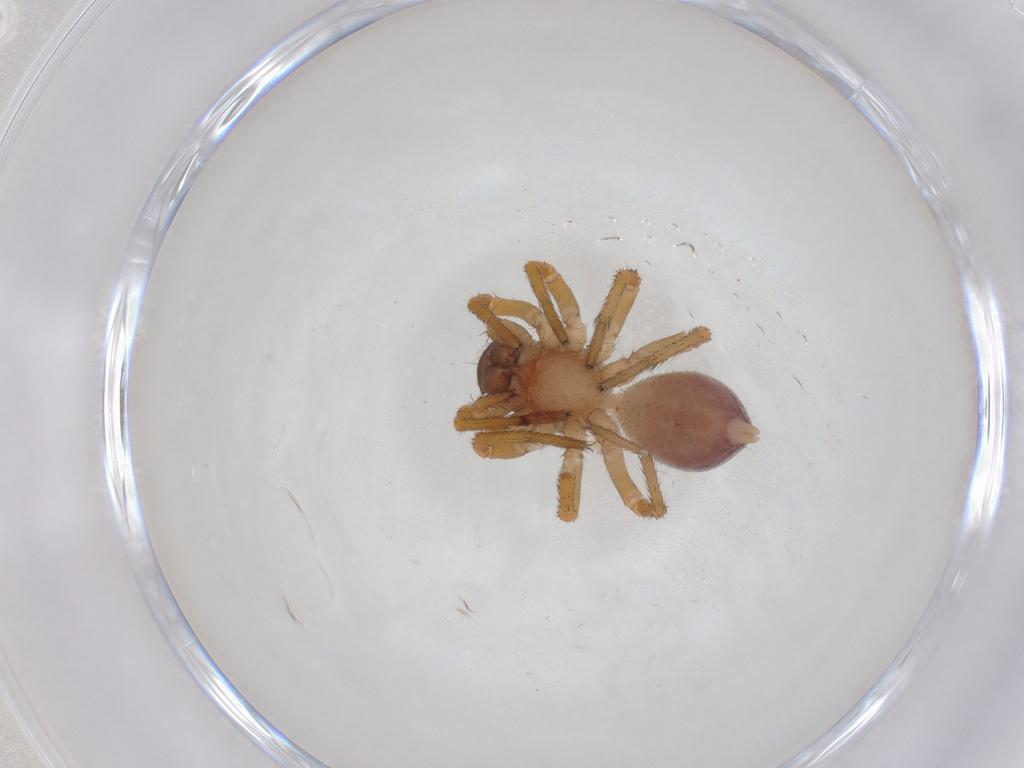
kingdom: Animalia
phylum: Arthropoda
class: Arachnida
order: Araneae
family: Zodariidae
